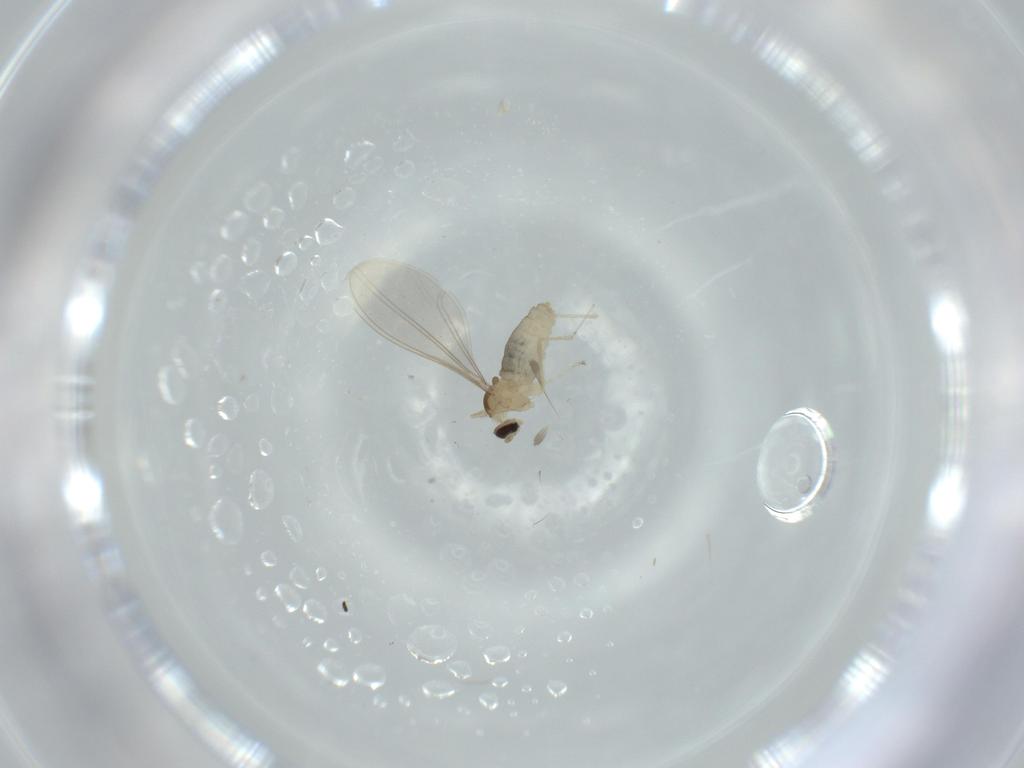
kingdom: Animalia
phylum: Arthropoda
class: Insecta
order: Diptera
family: Cecidomyiidae
